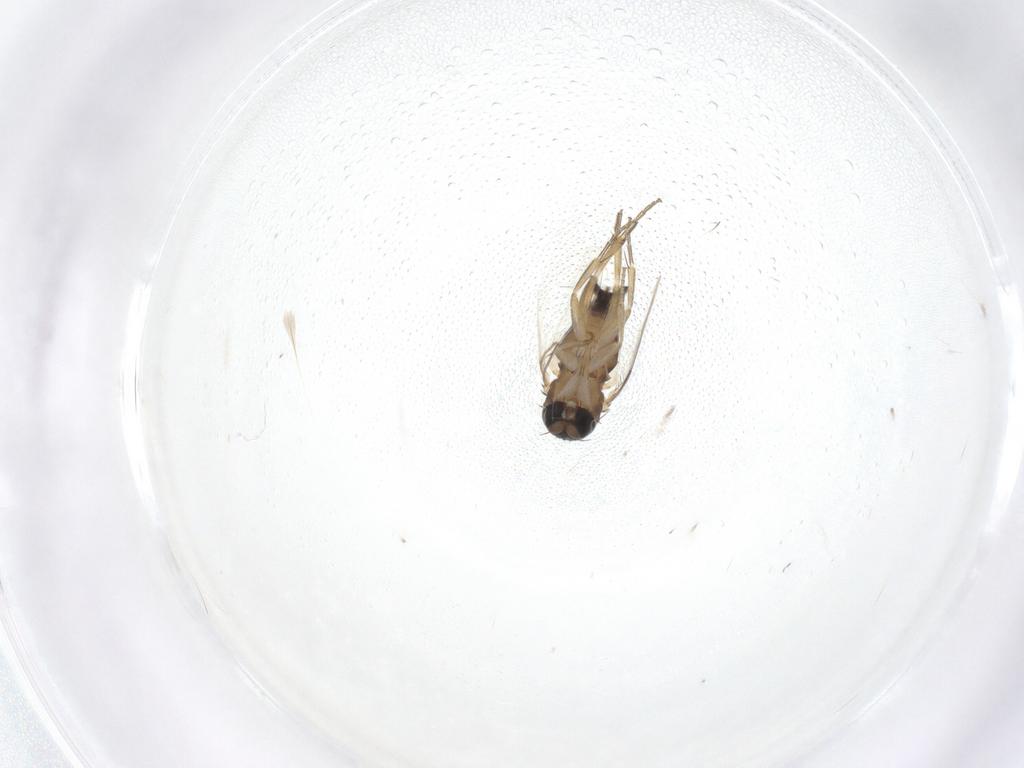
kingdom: Animalia
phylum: Arthropoda
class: Insecta
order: Diptera
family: Phoridae
